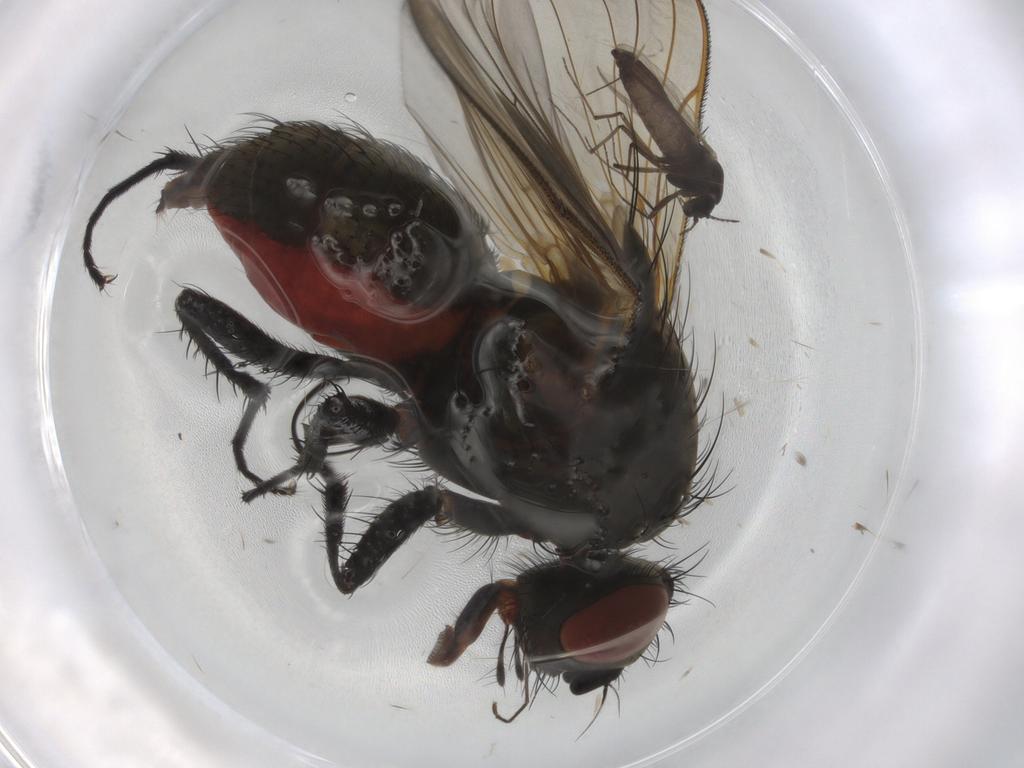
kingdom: Animalia
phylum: Arthropoda
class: Insecta
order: Diptera
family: Anthomyiidae
